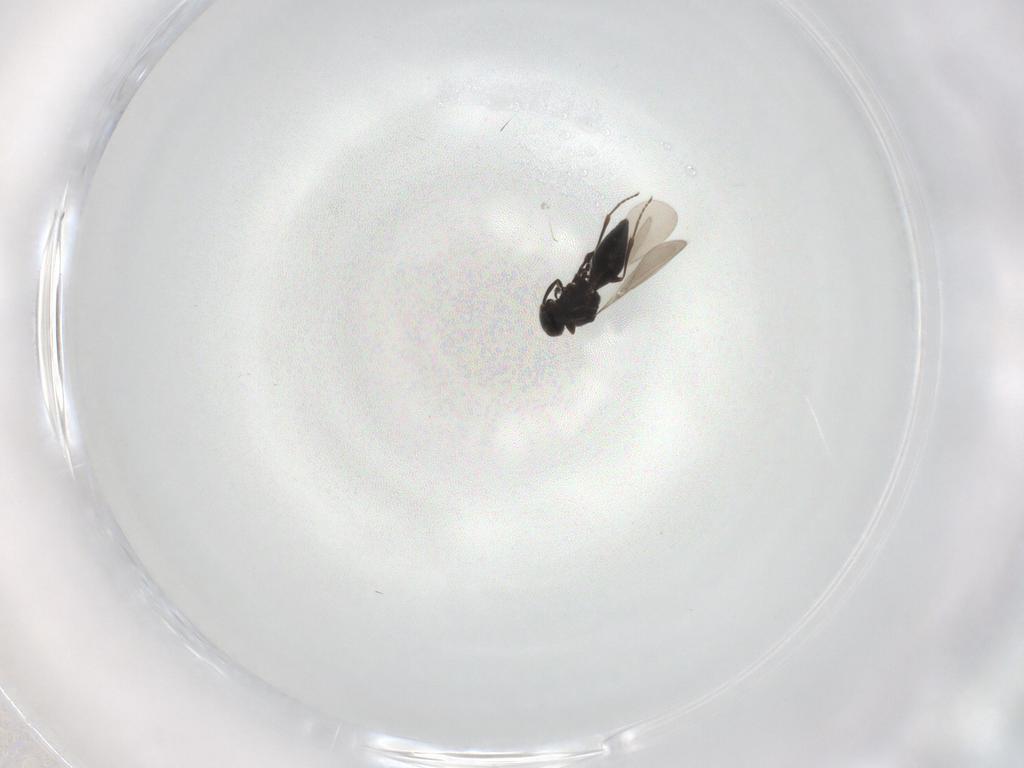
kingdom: Animalia
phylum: Arthropoda
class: Insecta
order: Hymenoptera
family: Platygastridae
